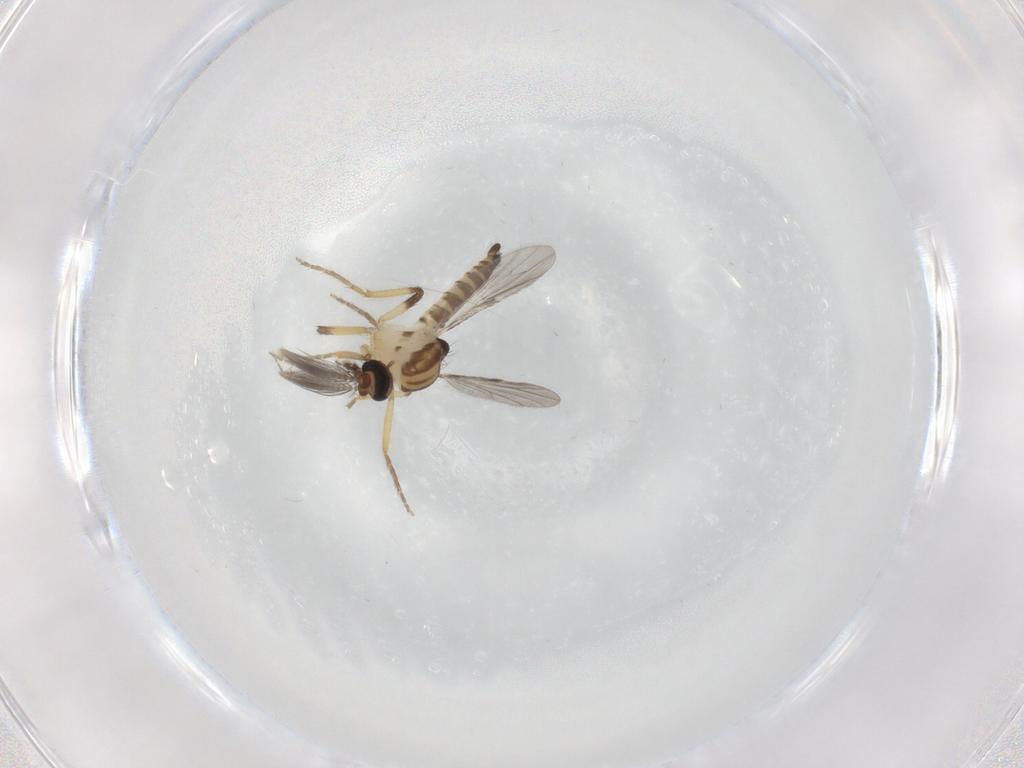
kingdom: Animalia
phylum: Arthropoda
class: Insecta
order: Diptera
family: Ceratopogonidae
